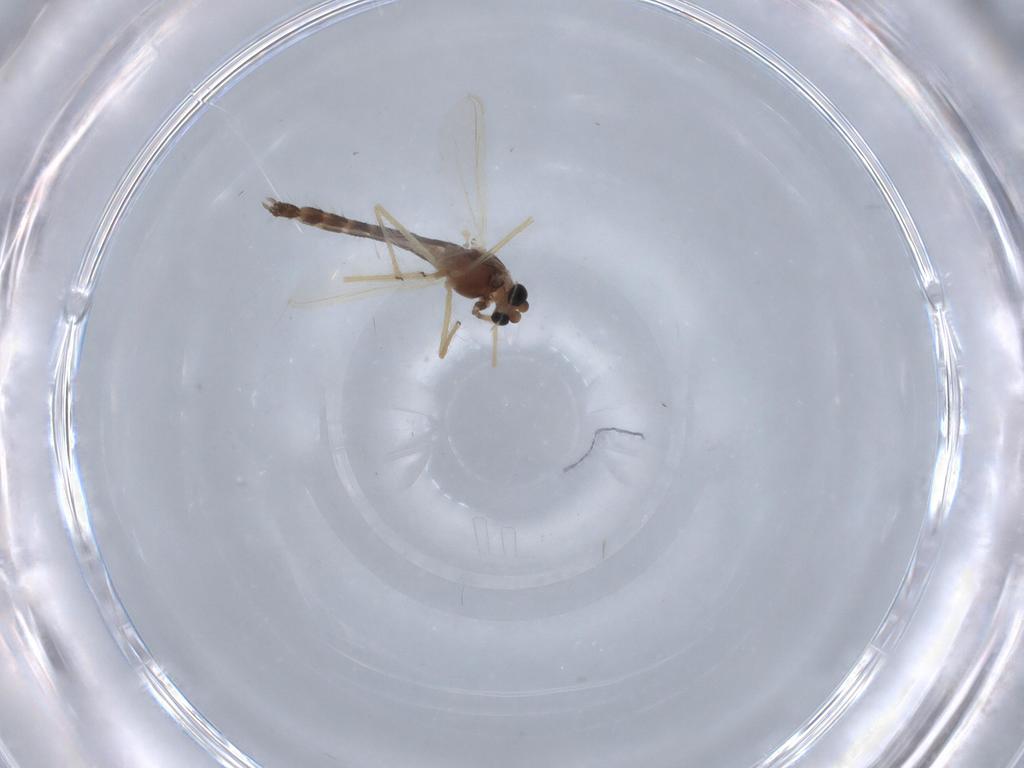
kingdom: Animalia
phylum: Arthropoda
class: Insecta
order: Diptera
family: Chironomidae
